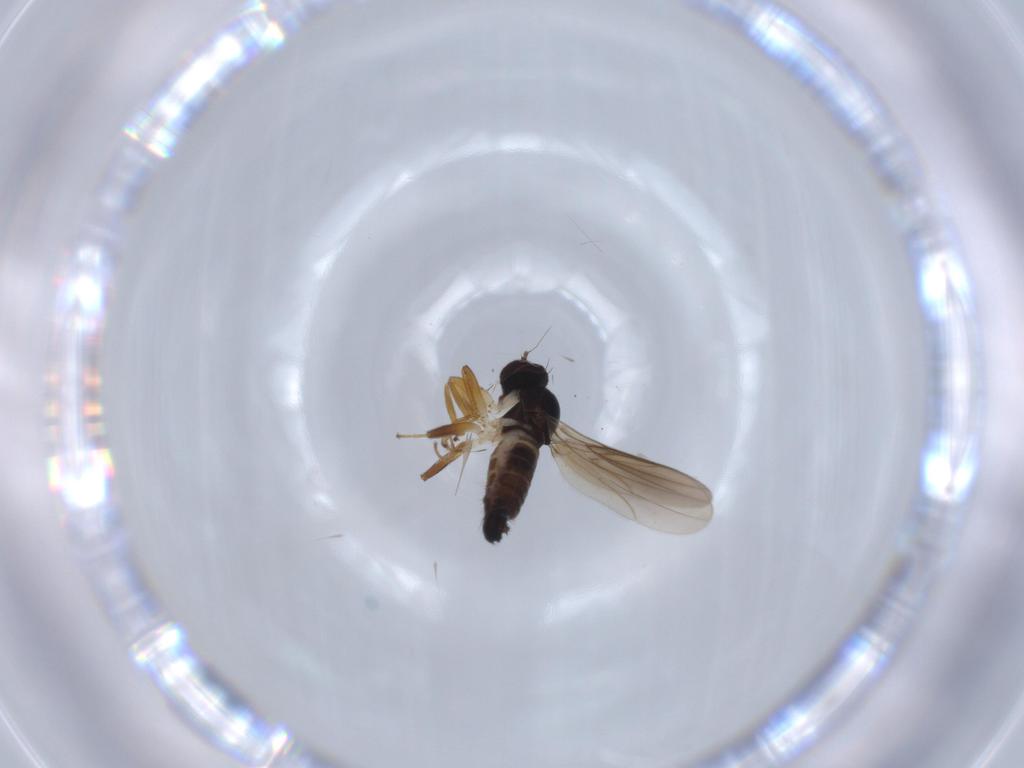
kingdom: Animalia
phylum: Arthropoda
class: Insecta
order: Diptera
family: Hybotidae
